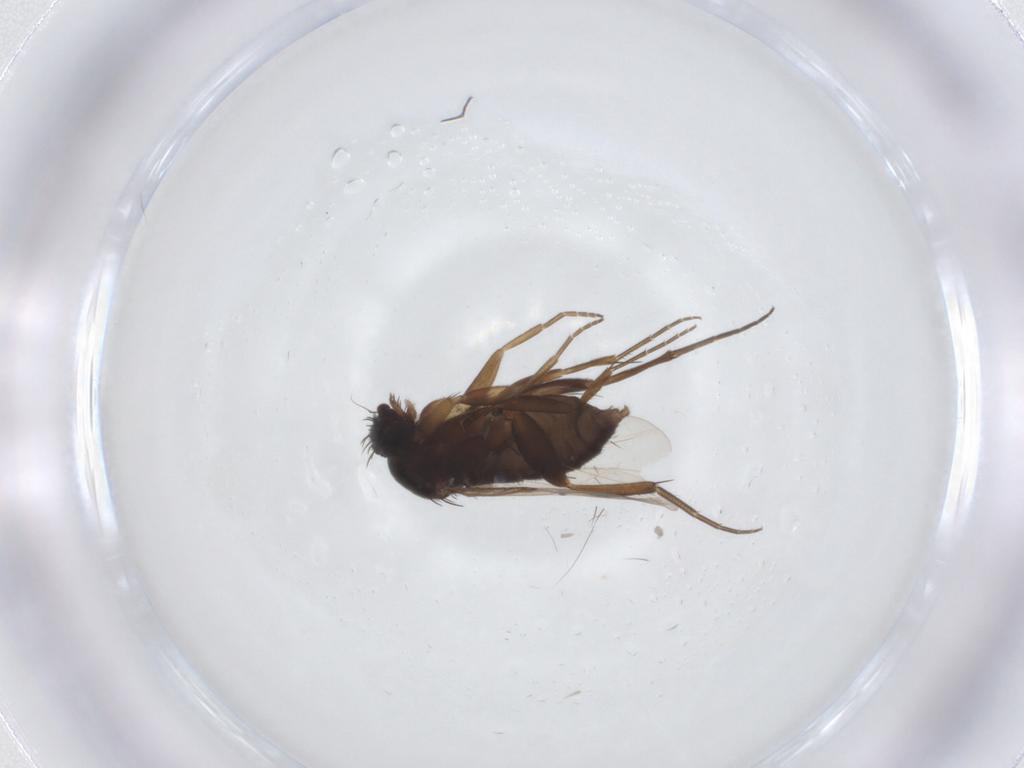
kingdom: Animalia
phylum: Arthropoda
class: Insecta
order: Diptera
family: Phoridae
